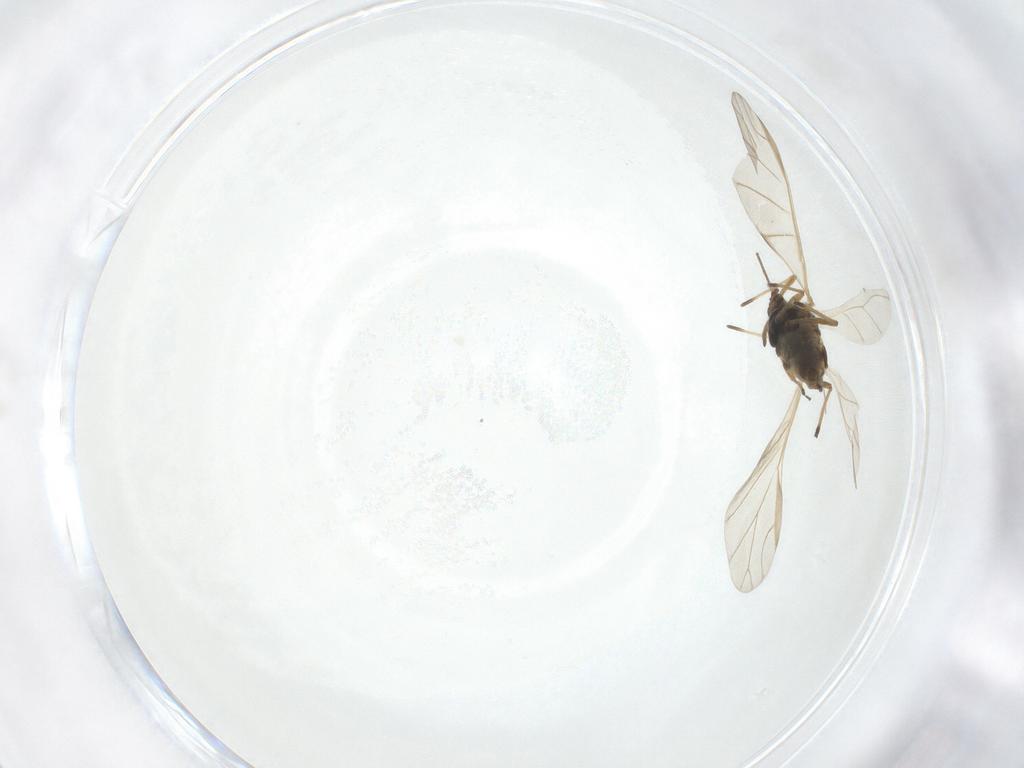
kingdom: Animalia
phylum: Arthropoda
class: Insecta
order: Hemiptera
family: Aphididae
